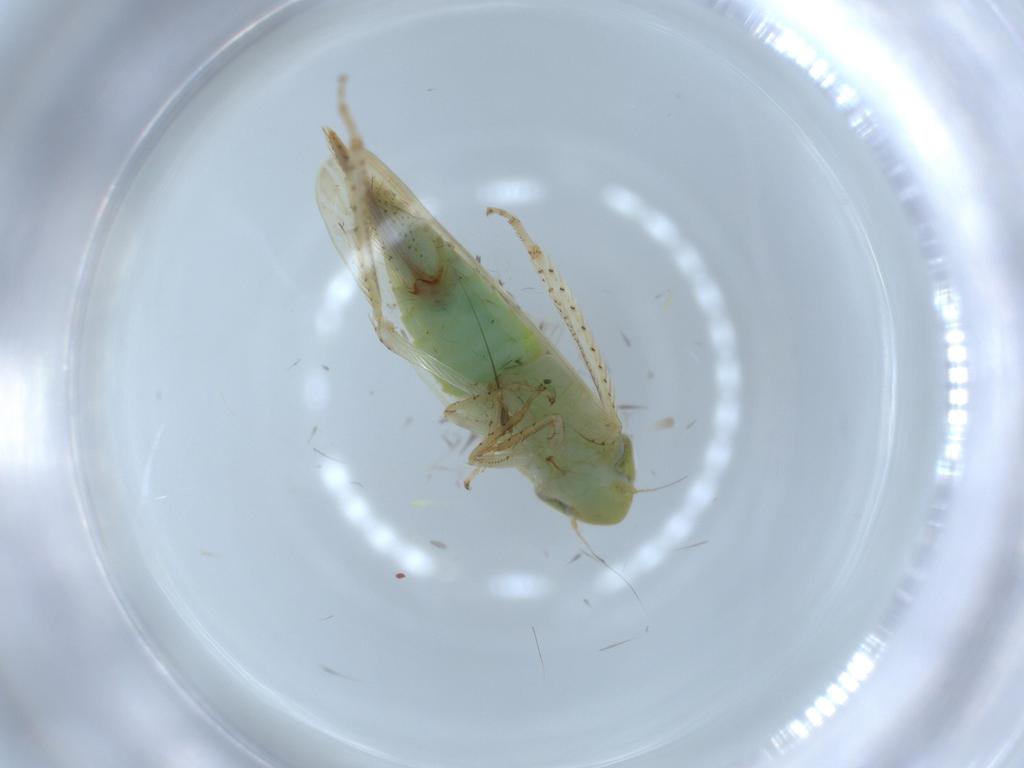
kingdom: Animalia
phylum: Arthropoda
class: Insecta
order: Hemiptera
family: Cicadellidae
